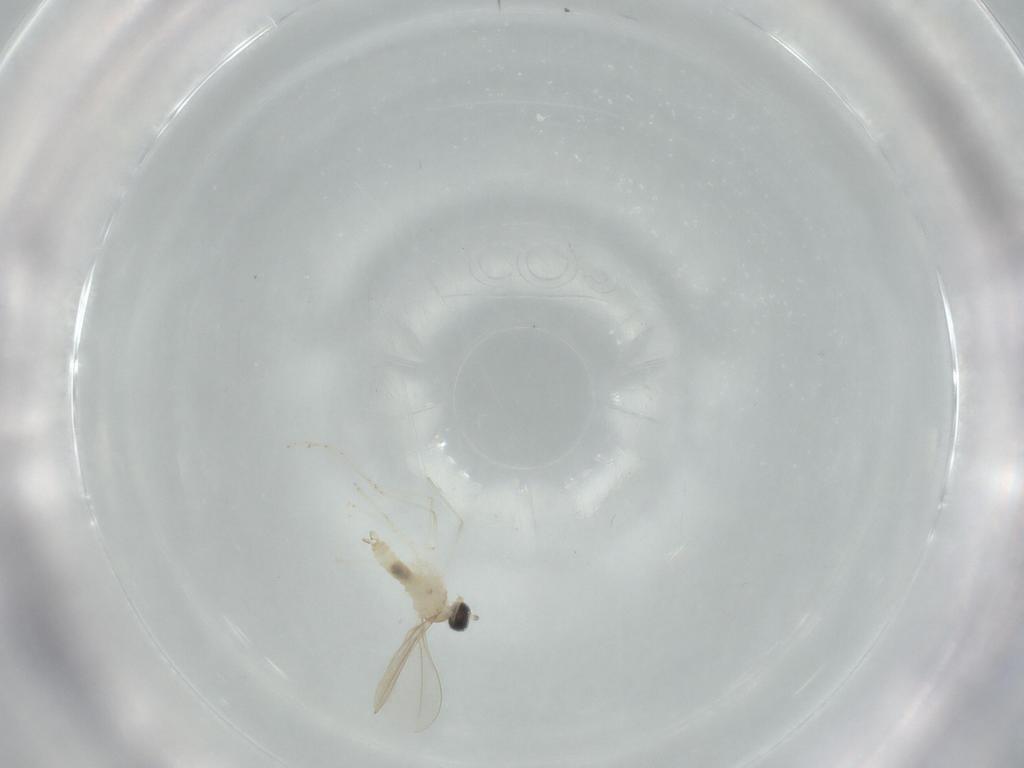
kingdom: Animalia
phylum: Arthropoda
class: Insecta
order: Diptera
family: Cecidomyiidae
